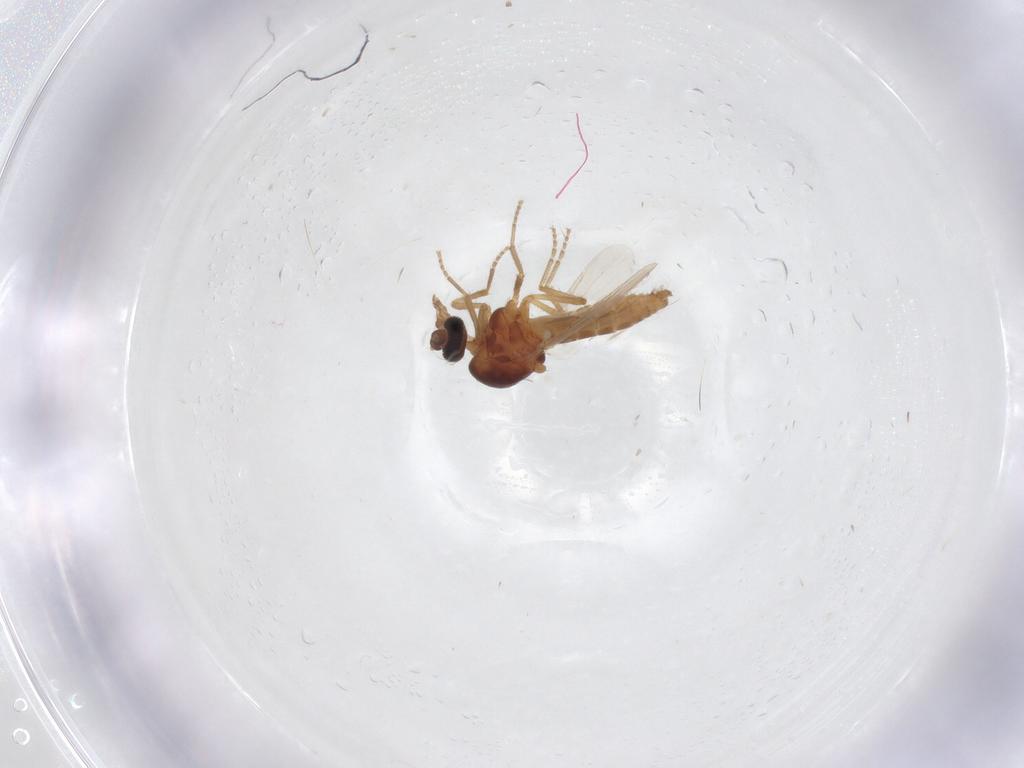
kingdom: Animalia
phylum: Arthropoda
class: Insecta
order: Diptera
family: Ceratopogonidae
